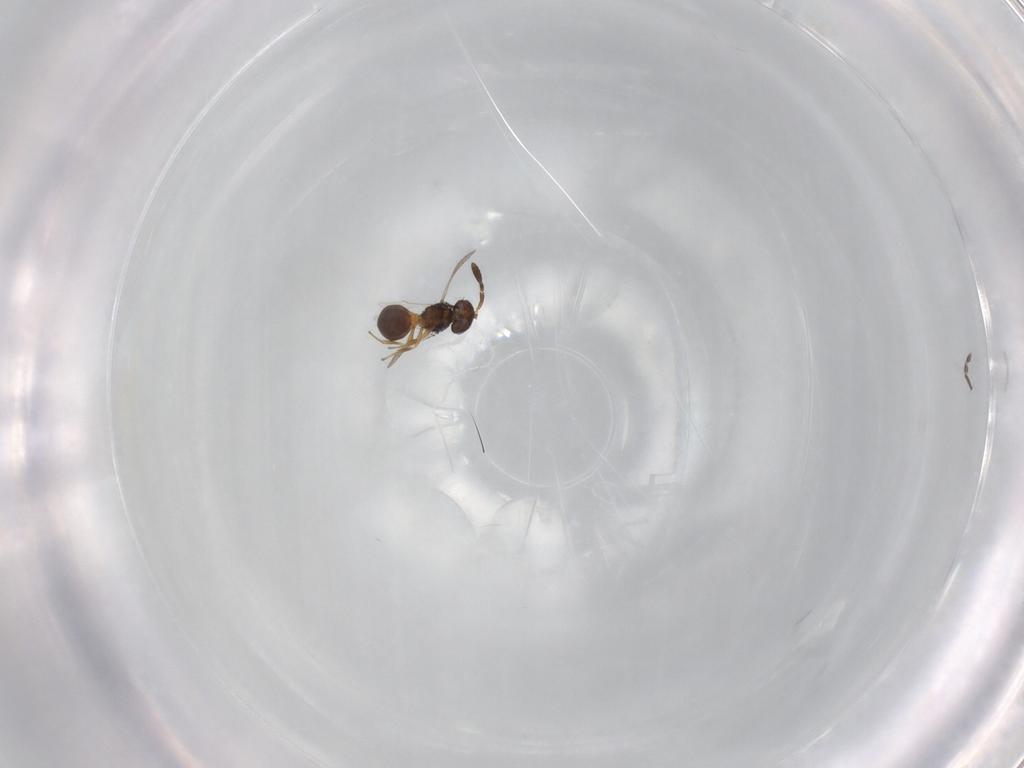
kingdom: Animalia
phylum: Arthropoda
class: Insecta
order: Hymenoptera
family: Scelionidae
